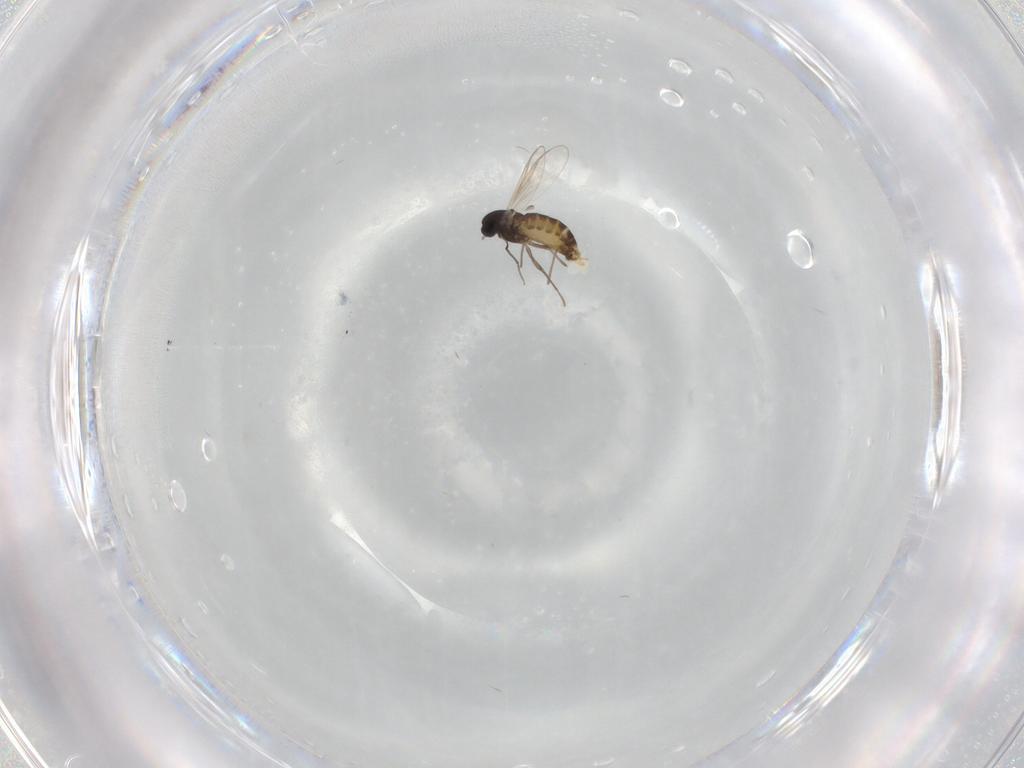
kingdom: Animalia
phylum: Arthropoda
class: Insecta
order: Diptera
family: Chironomidae
